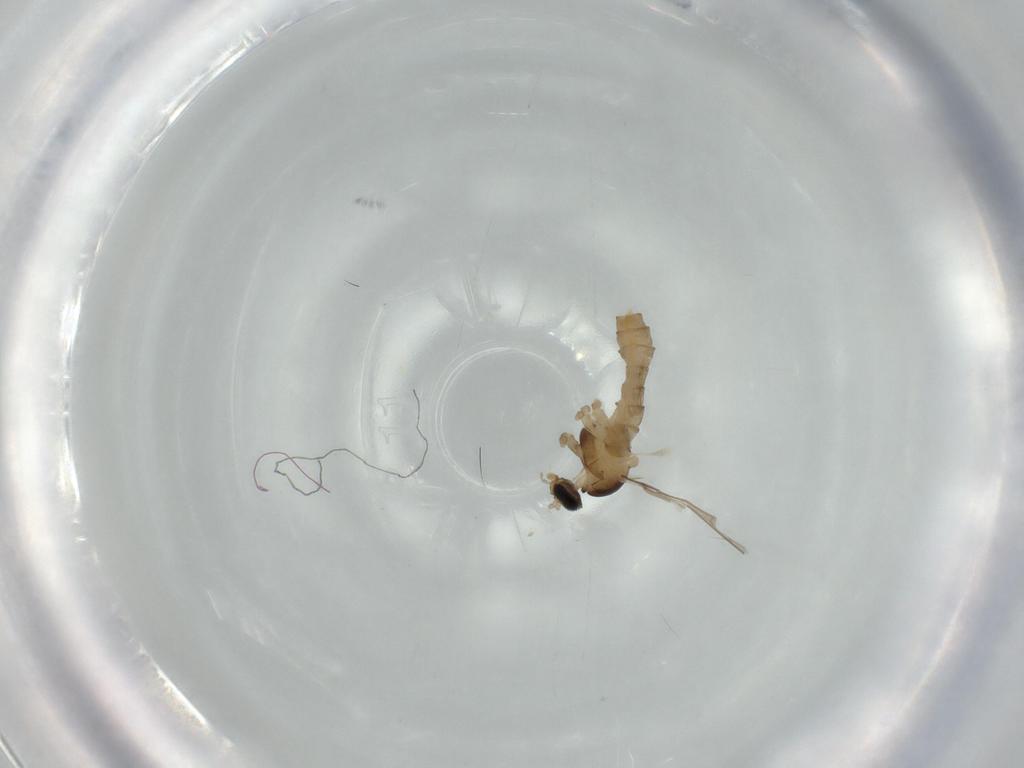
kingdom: Animalia
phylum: Arthropoda
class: Insecta
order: Diptera
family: Cecidomyiidae
